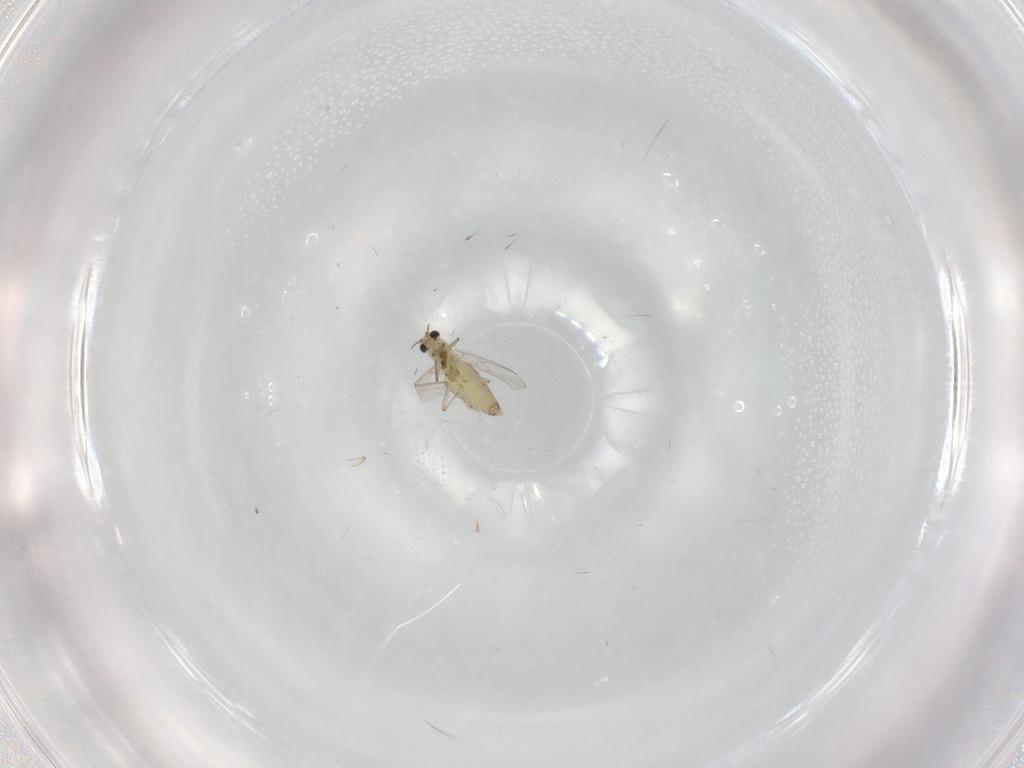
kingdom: Animalia
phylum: Arthropoda
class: Insecta
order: Diptera
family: Chironomidae
